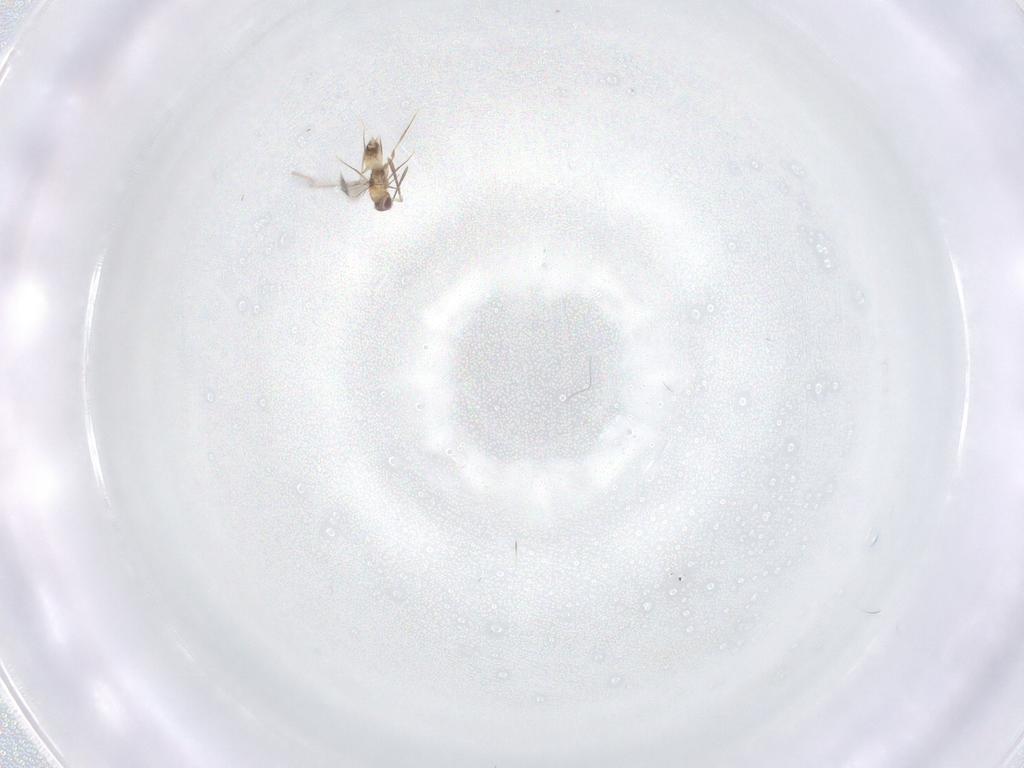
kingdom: Animalia
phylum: Arthropoda
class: Insecta
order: Hymenoptera
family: Mymaridae
